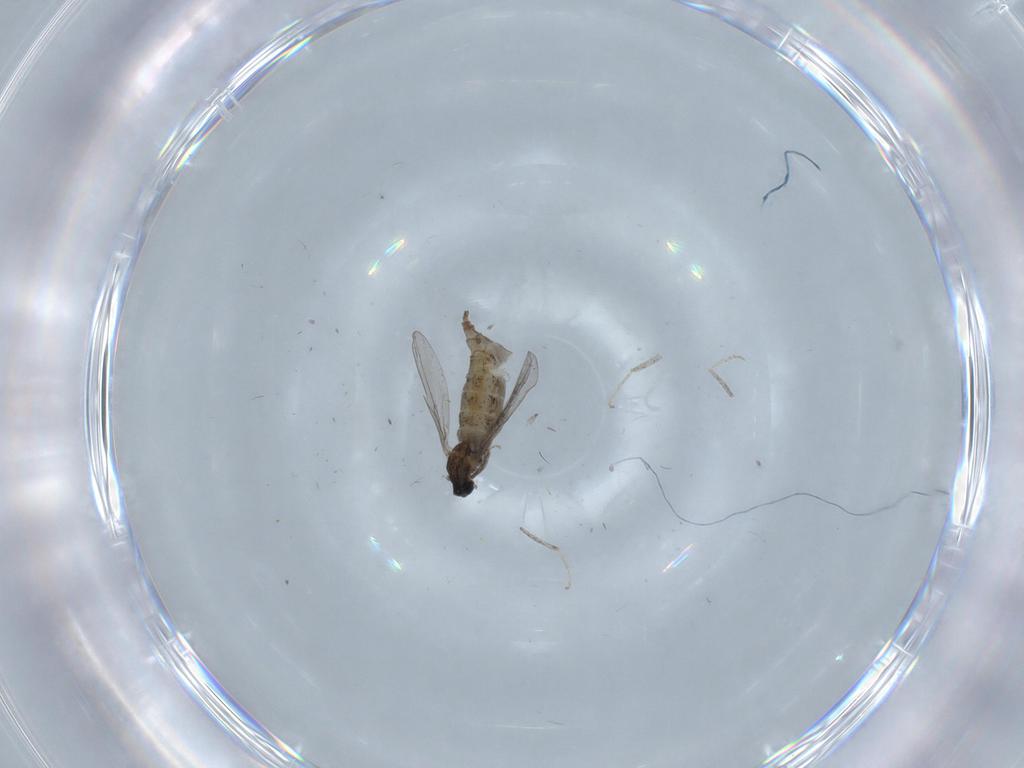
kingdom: Animalia
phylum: Arthropoda
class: Insecta
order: Diptera
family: Cecidomyiidae
